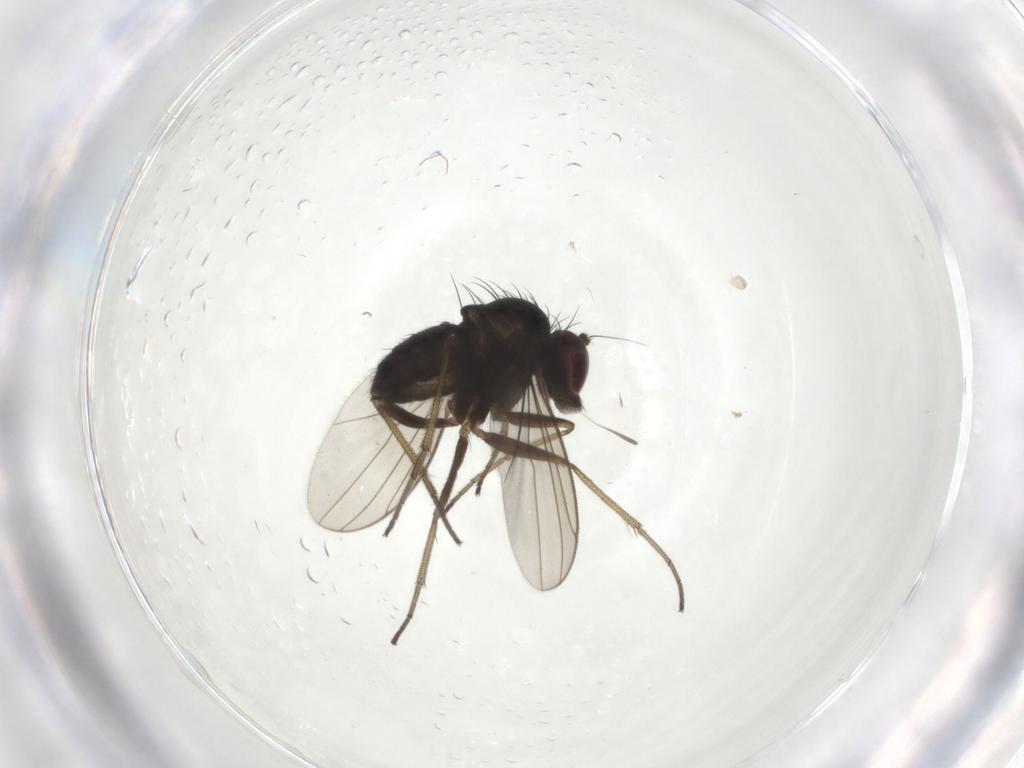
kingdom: Animalia
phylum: Arthropoda
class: Insecta
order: Diptera
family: Dolichopodidae
